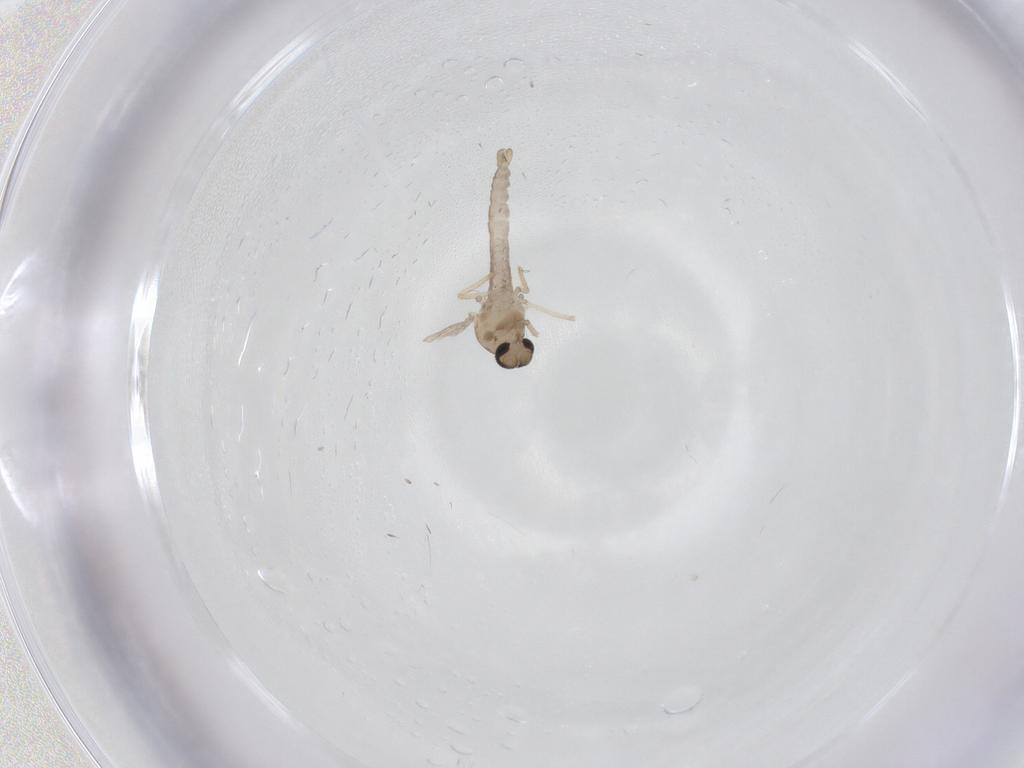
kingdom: Animalia
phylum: Arthropoda
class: Insecta
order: Diptera
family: Ceratopogonidae
